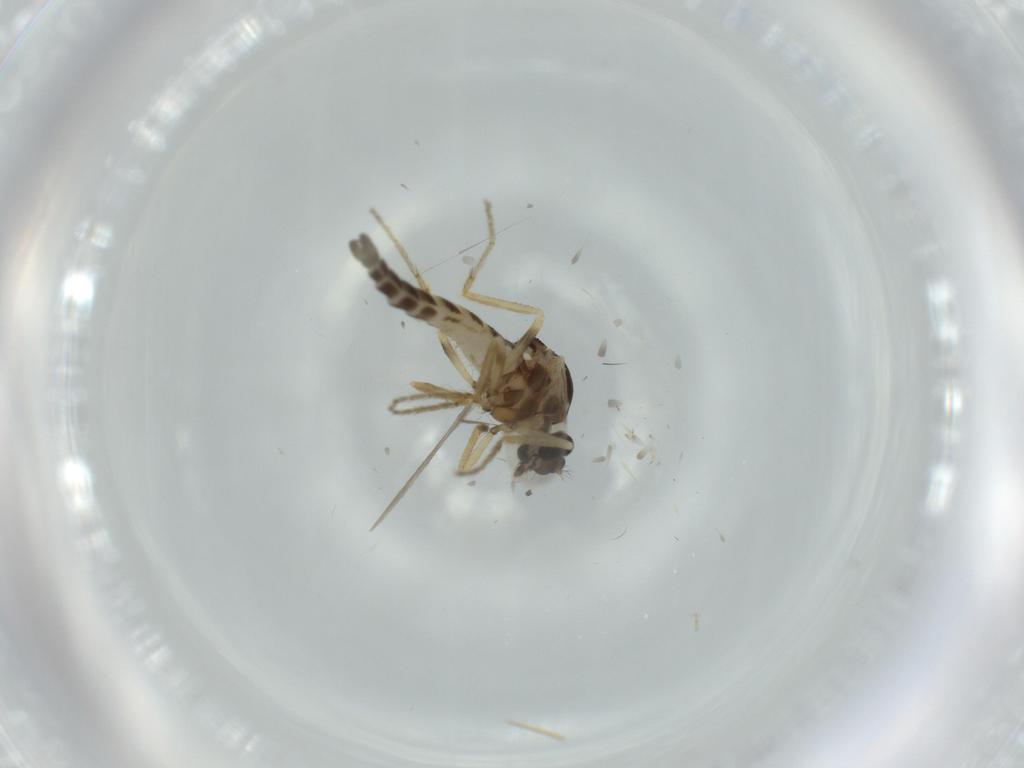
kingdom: Animalia
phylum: Arthropoda
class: Insecta
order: Diptera
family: Ceratopogonidae
